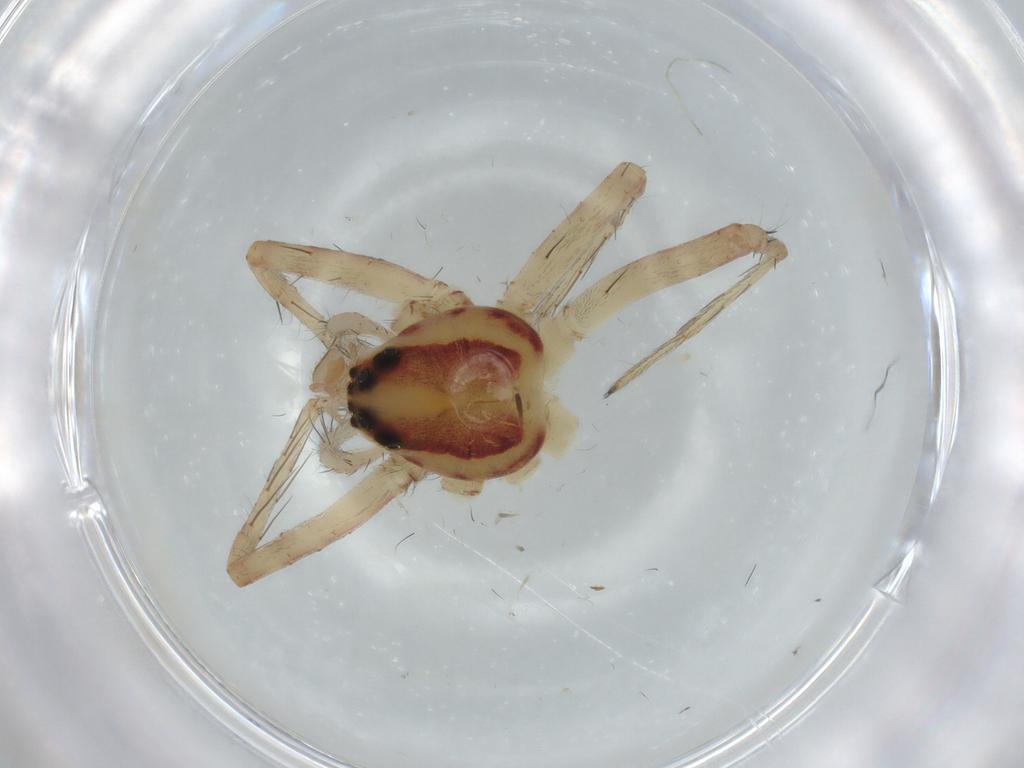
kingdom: Animalia
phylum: Arthropoda
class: Arachnida
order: Araneae
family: Pisauridae
